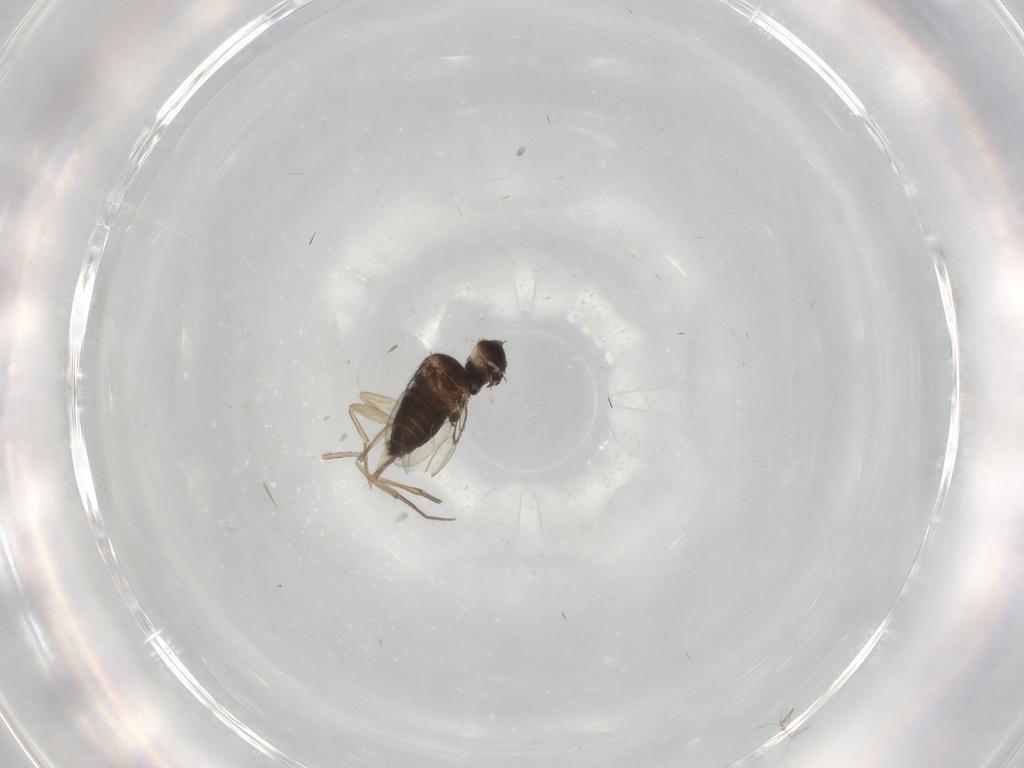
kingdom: Animalia
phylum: Arthropoda
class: Insecta
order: Diptera
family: Phoridae
